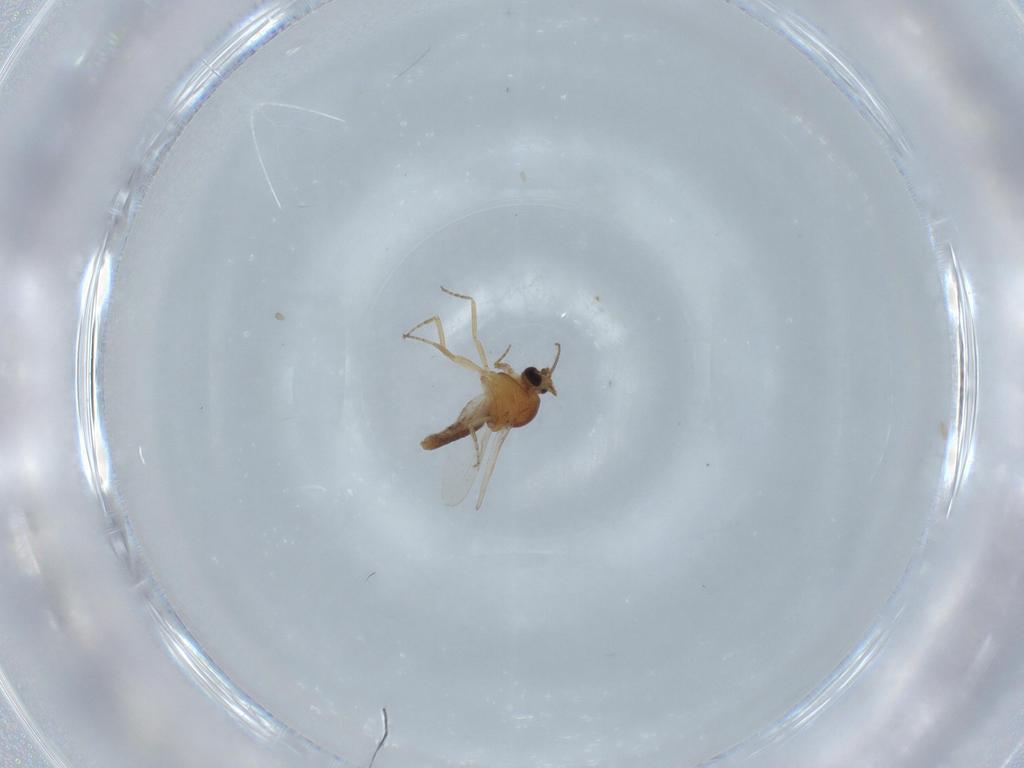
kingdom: Animalia
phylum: Arthropoda
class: Insecta
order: Diptera
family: Ceratopogonidae
